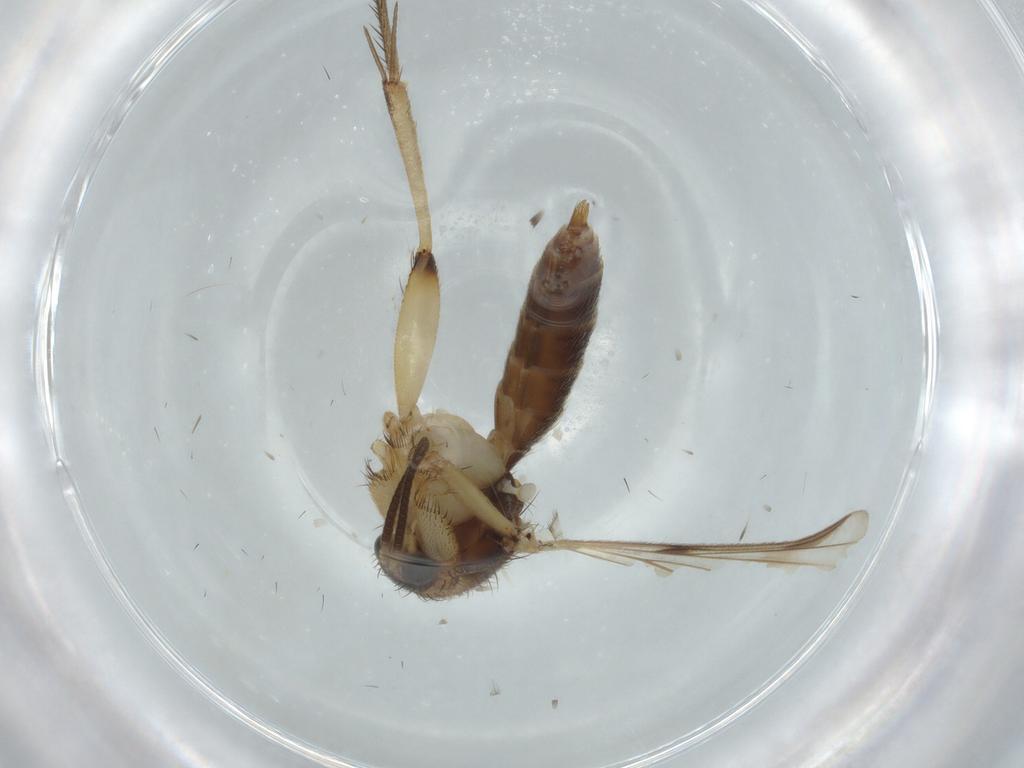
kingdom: Animalia
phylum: Arthropoda
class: Insecta
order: Diptera
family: Mycetophilidae
